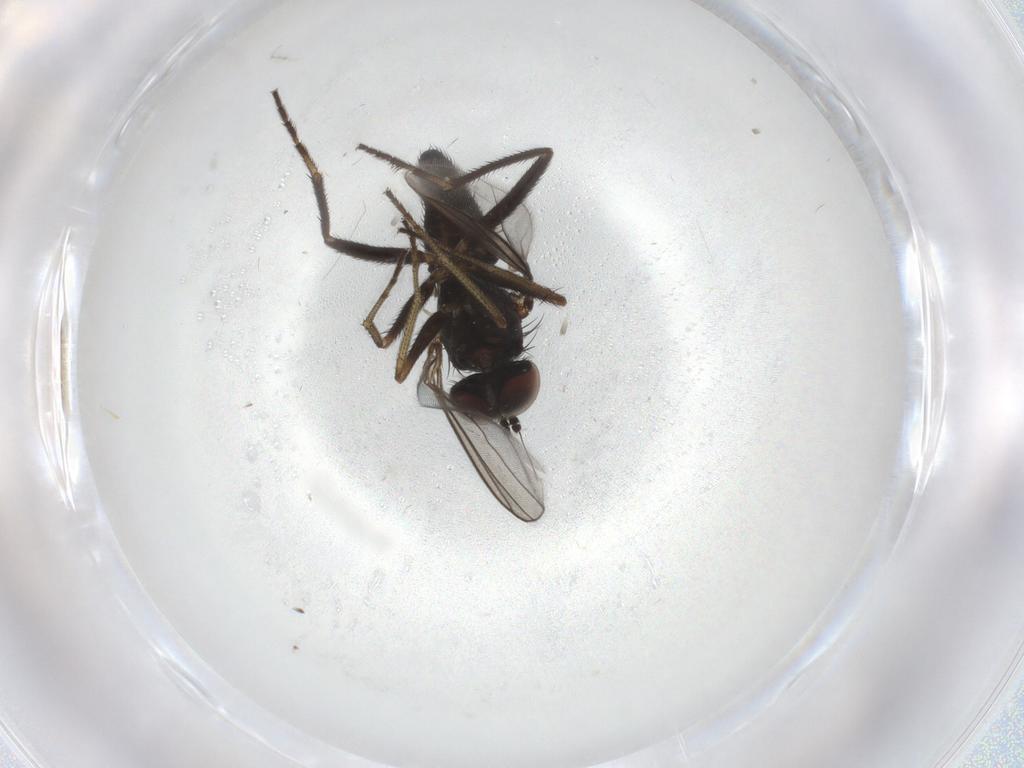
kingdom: Animalia
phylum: Arthropoda
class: Insecta
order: Diptera
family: Dolichopodidae
